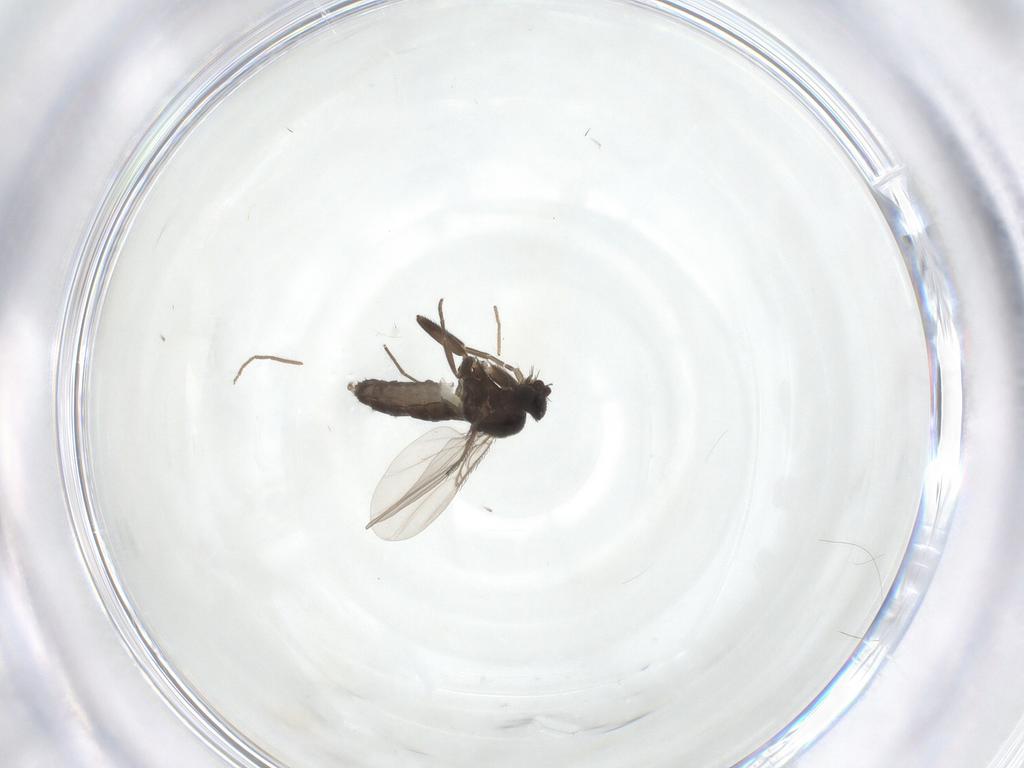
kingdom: Animalia
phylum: Arthropoda
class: Insecta
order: Diptera
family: Phoridae
